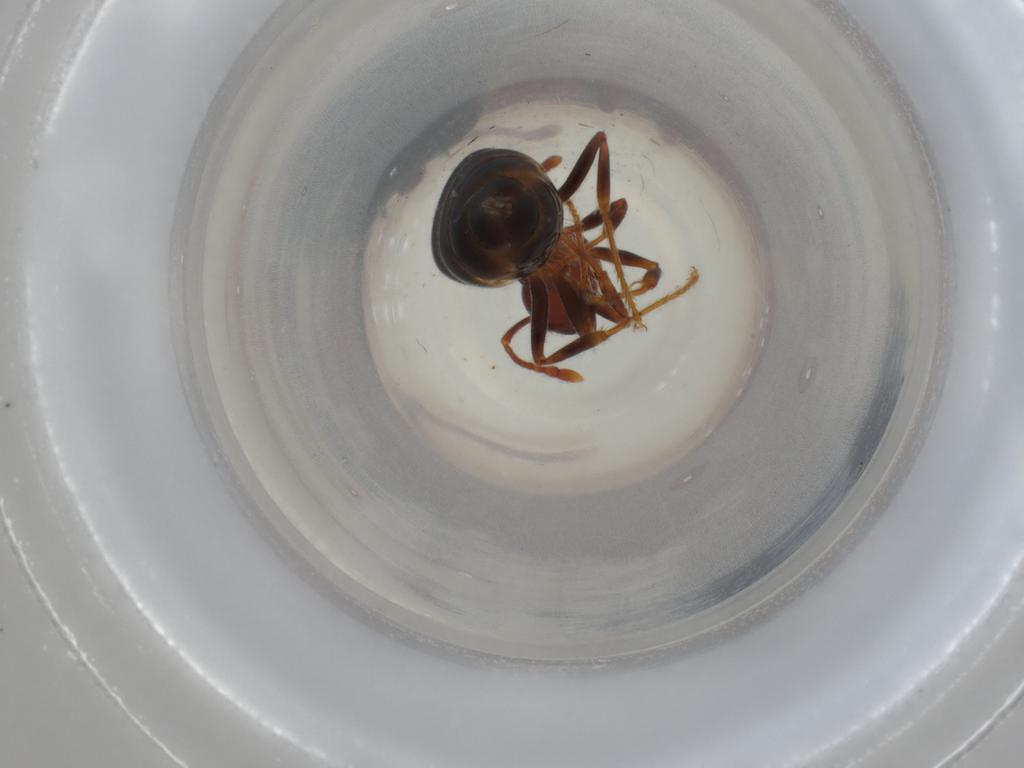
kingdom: Animalia
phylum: Arthropoda
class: Insecta
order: Hymenoptera
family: Formicidae
